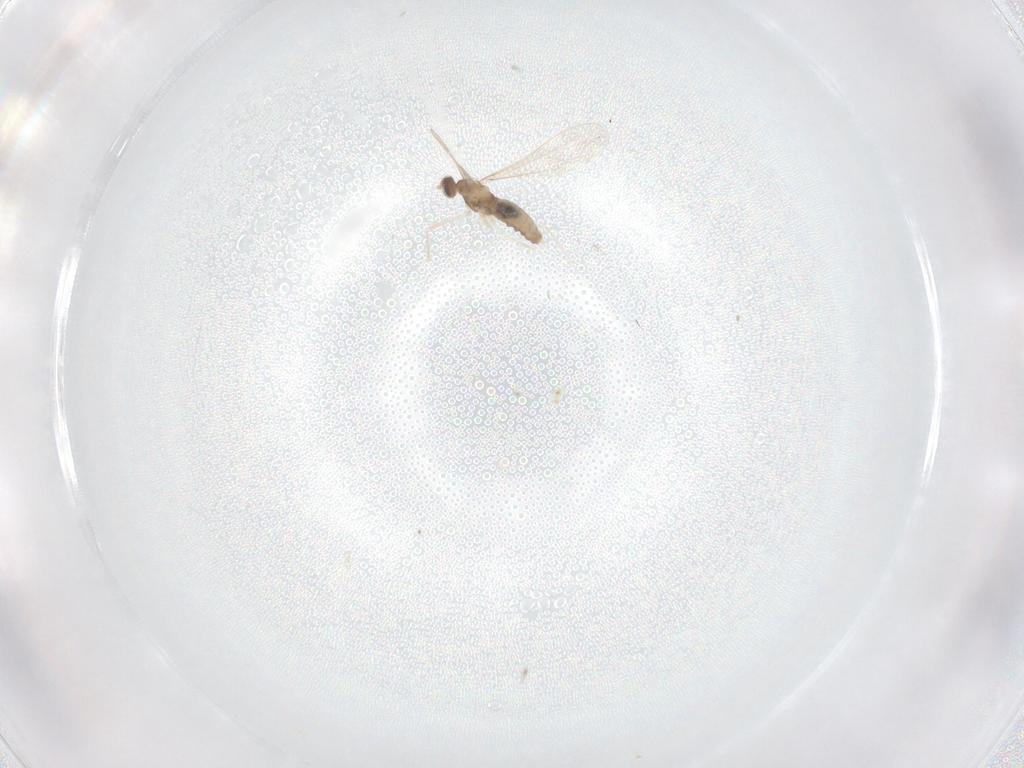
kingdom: Animalia
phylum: Arthropoda
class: Insecta
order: Diptera
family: Cecidomyiidae
